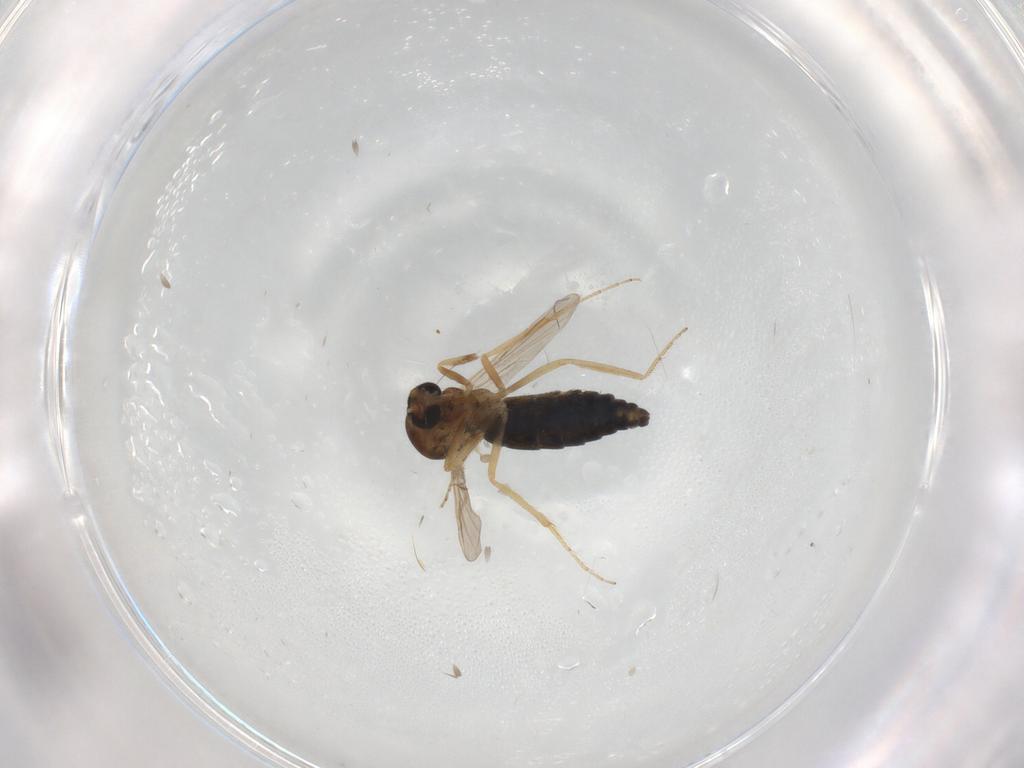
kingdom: Animalia
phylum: Arthropoda
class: Insecta
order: Diptera
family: Ceratopogonidae
